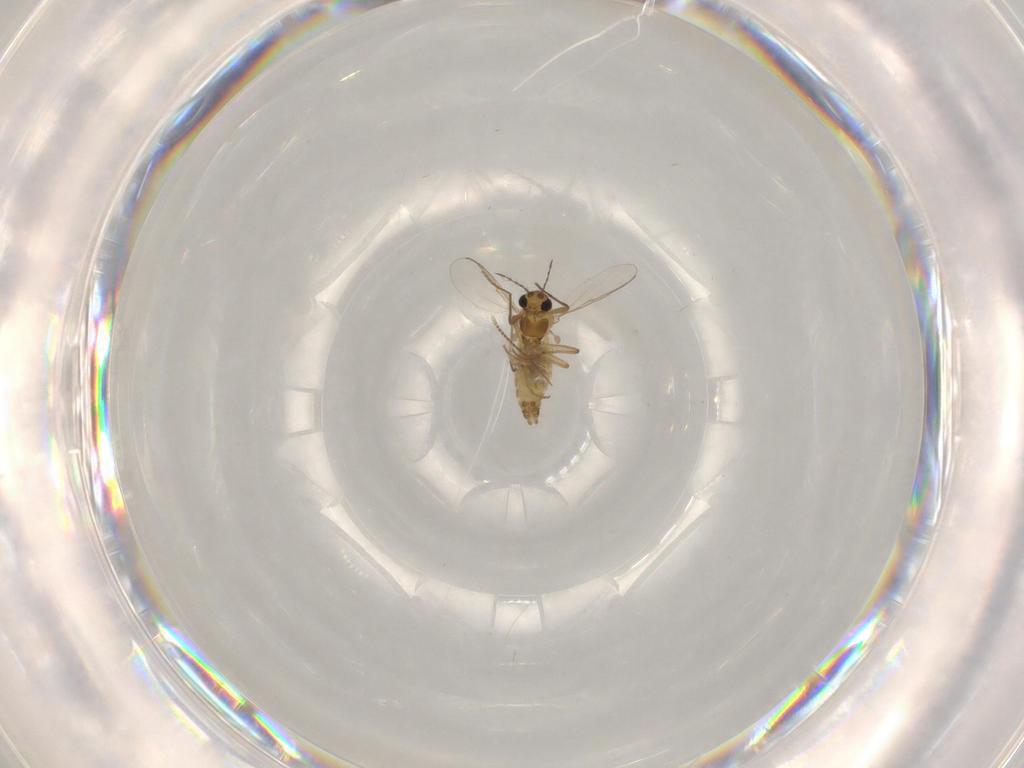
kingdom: Animalia
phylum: Arthropoda
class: Insecta
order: Diptera
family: Chironomidae
